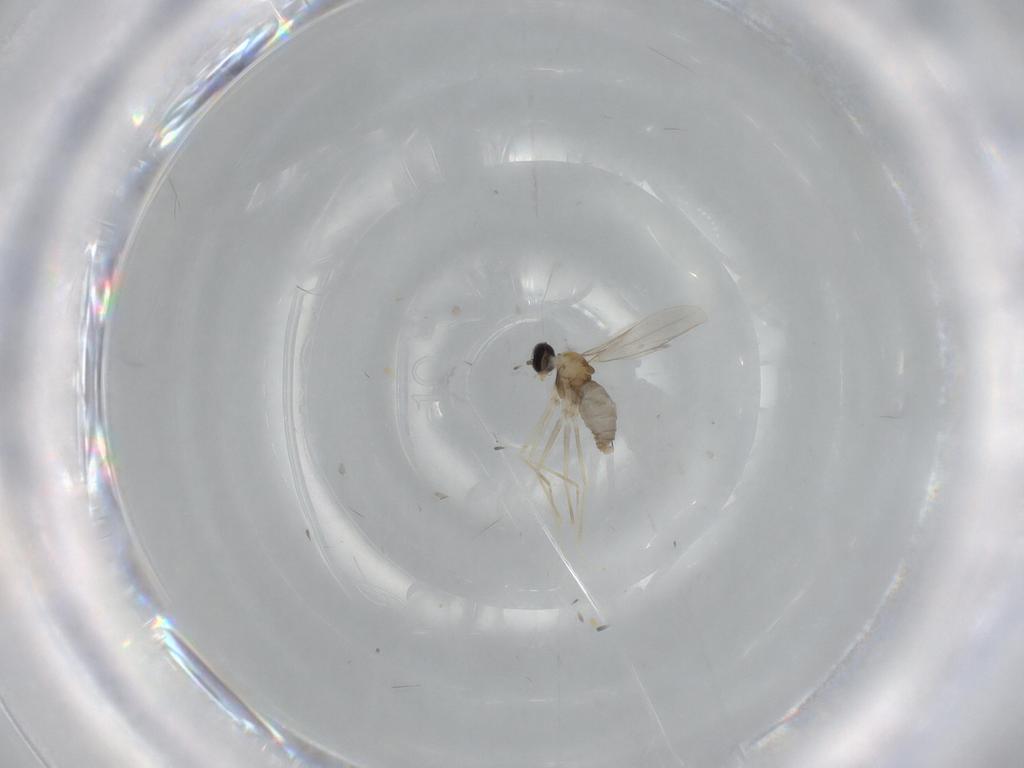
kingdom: Animalia
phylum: Arthropoda
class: Insecta
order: Diptera
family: Cecidomyiidae
